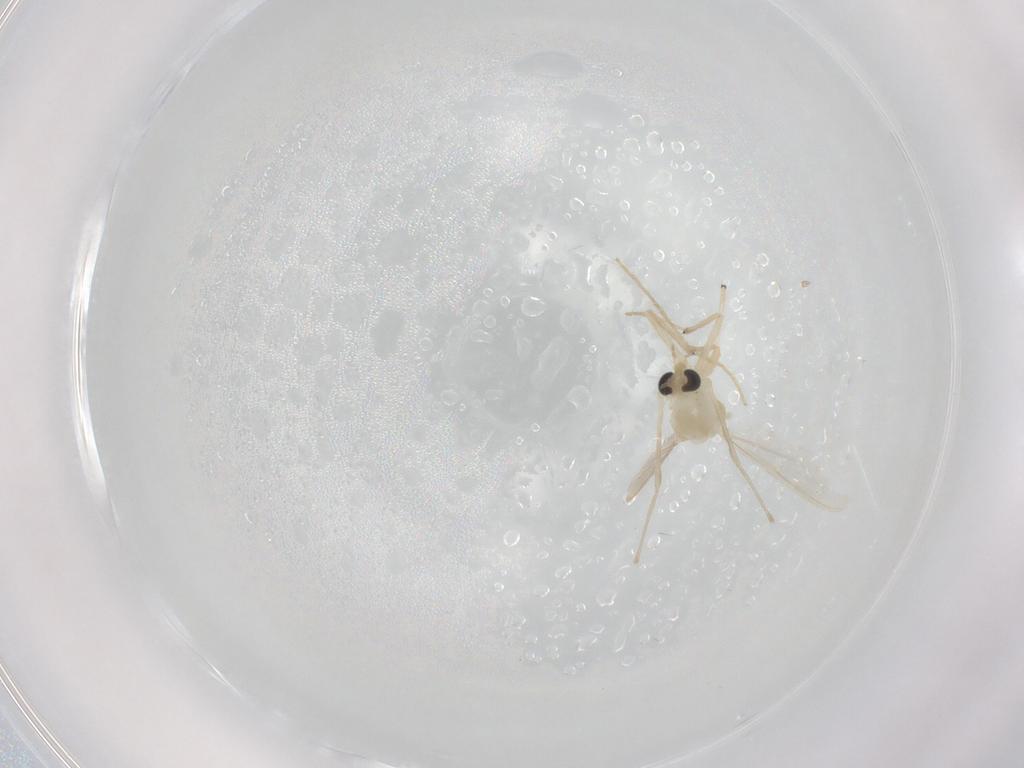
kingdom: Animalia
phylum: Arthropoda
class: Insecta
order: Diptera
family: Chironomidae
